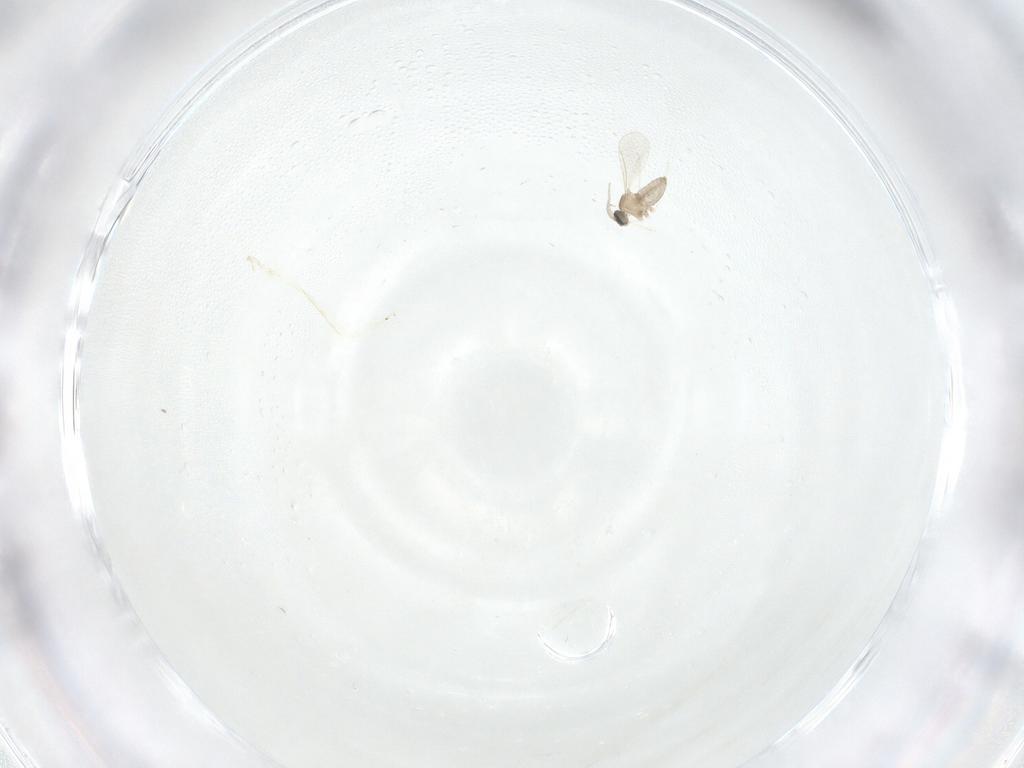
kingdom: Animalia
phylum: Arthropoda
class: Insecta
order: Diptera
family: Cecidomyiidae
